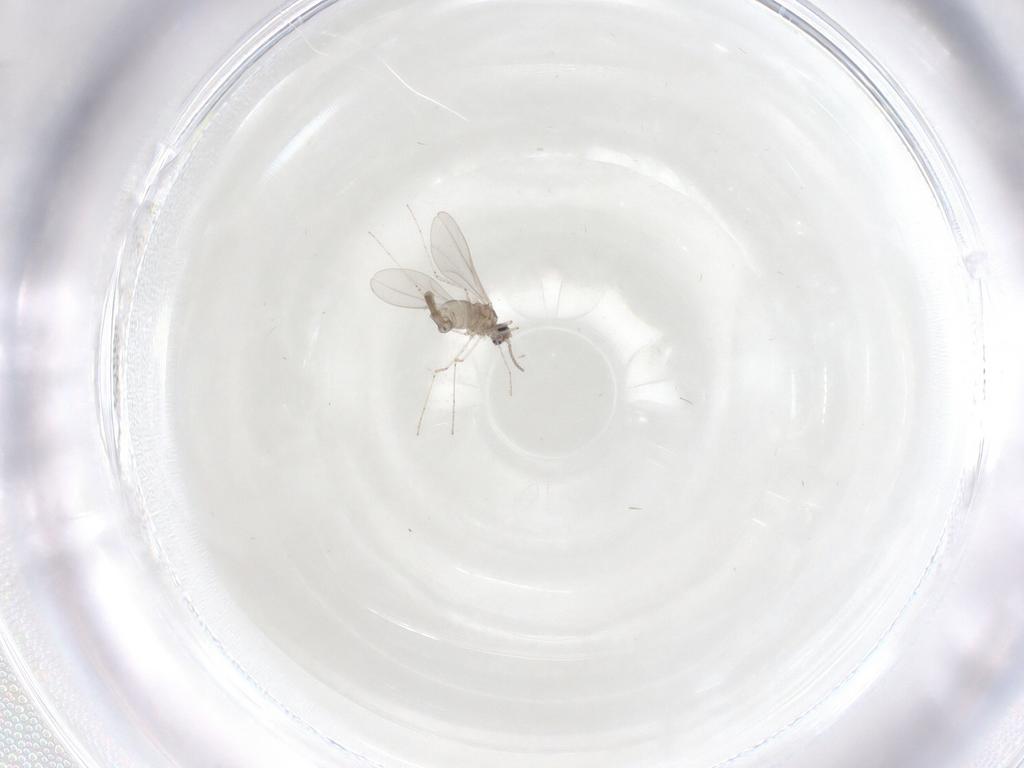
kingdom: Animalia
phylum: Arthropoda
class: Insecta
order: Diptera
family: Cecidomyiidae
